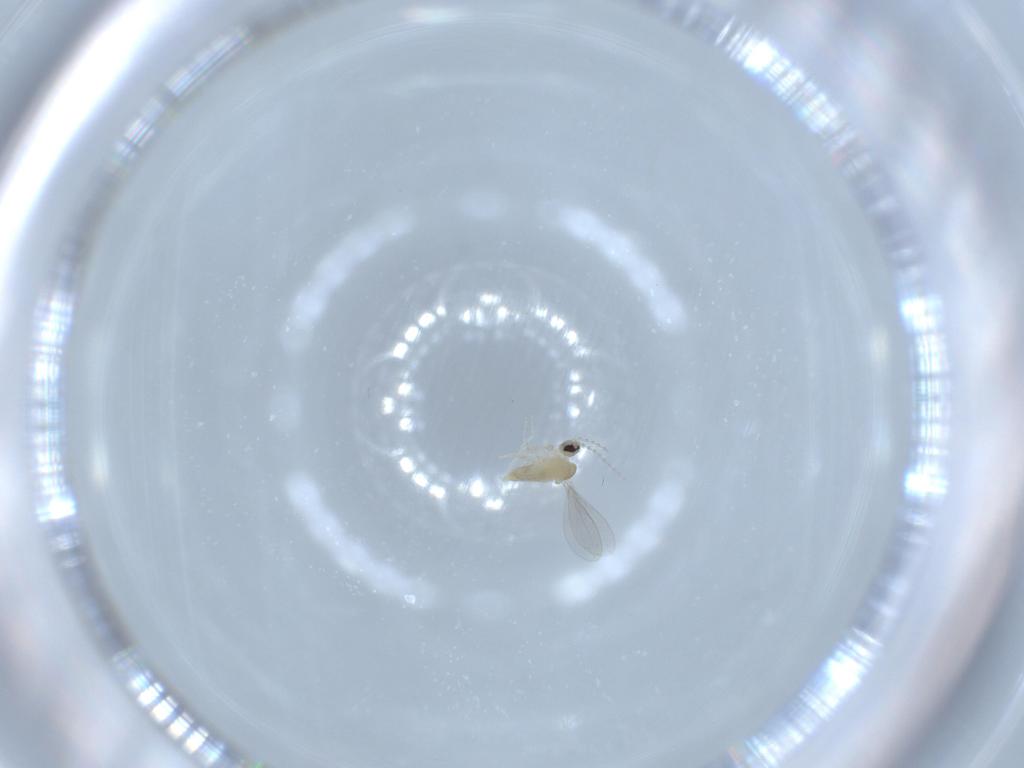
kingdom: Animalia
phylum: Arthropoda
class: Insecta
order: Diptera
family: Cecidomyiidae
